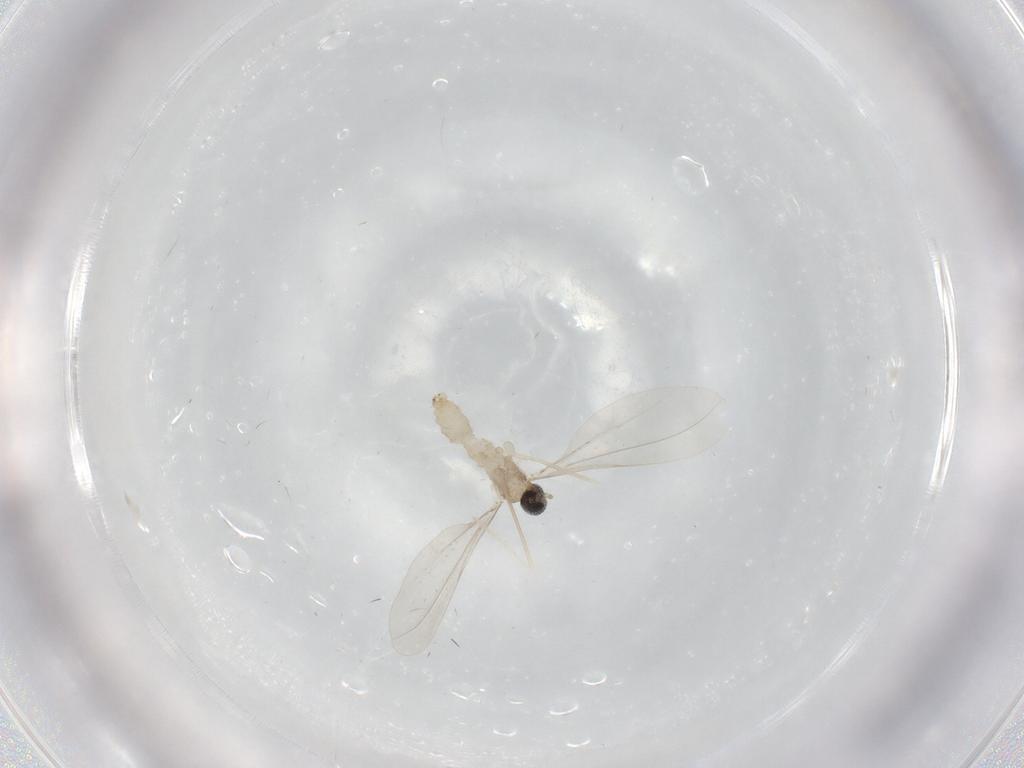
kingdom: Animalia
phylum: Arthropoda
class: Insecta
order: Diptera
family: Cecidomyiidae
